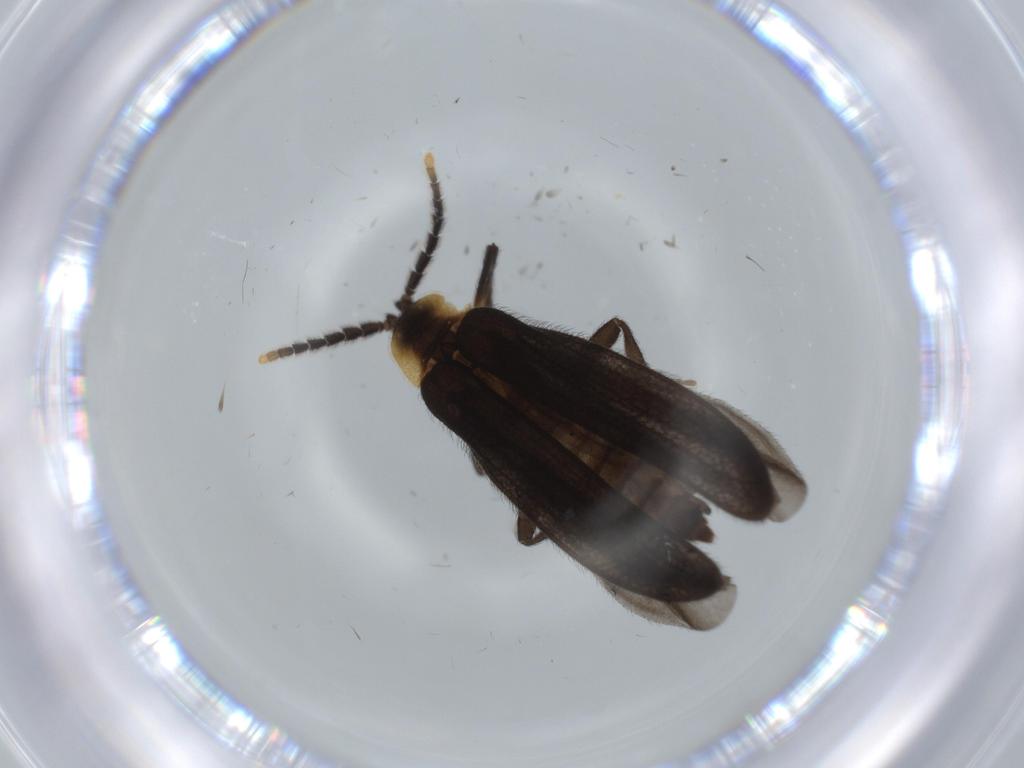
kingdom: Animalia
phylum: Arthropoda
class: Insecta
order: Coleoptera
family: Lycidae
